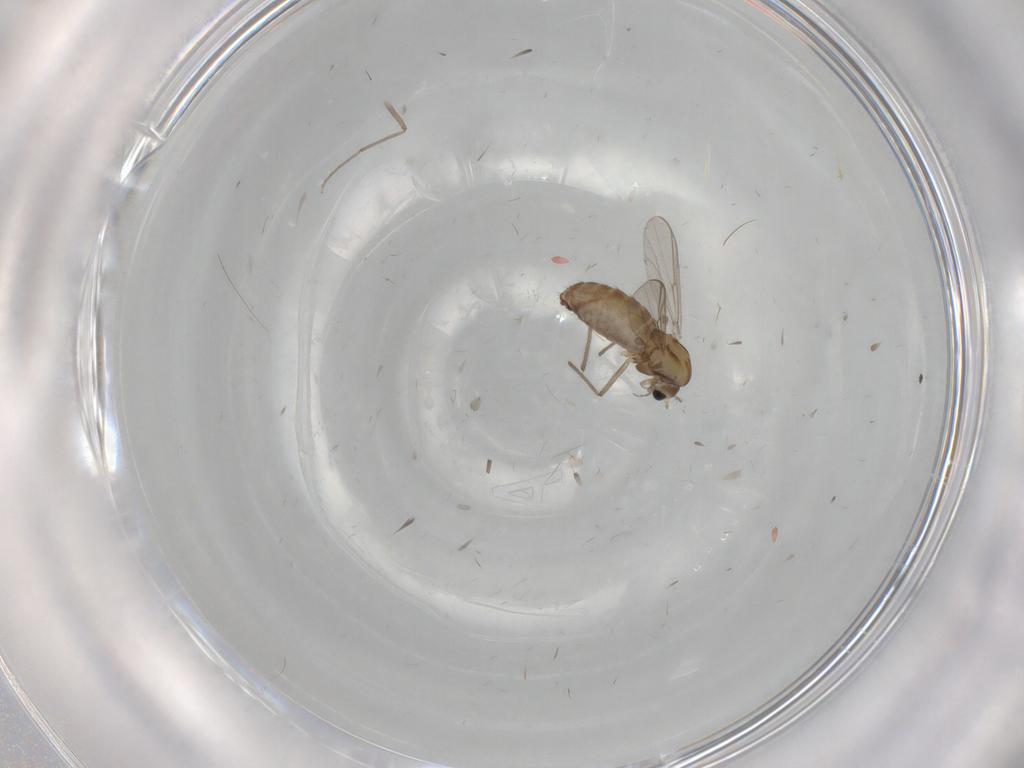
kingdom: Animalia
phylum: Arthropoda
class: Insecta
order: Diptera
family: Chironomidae
